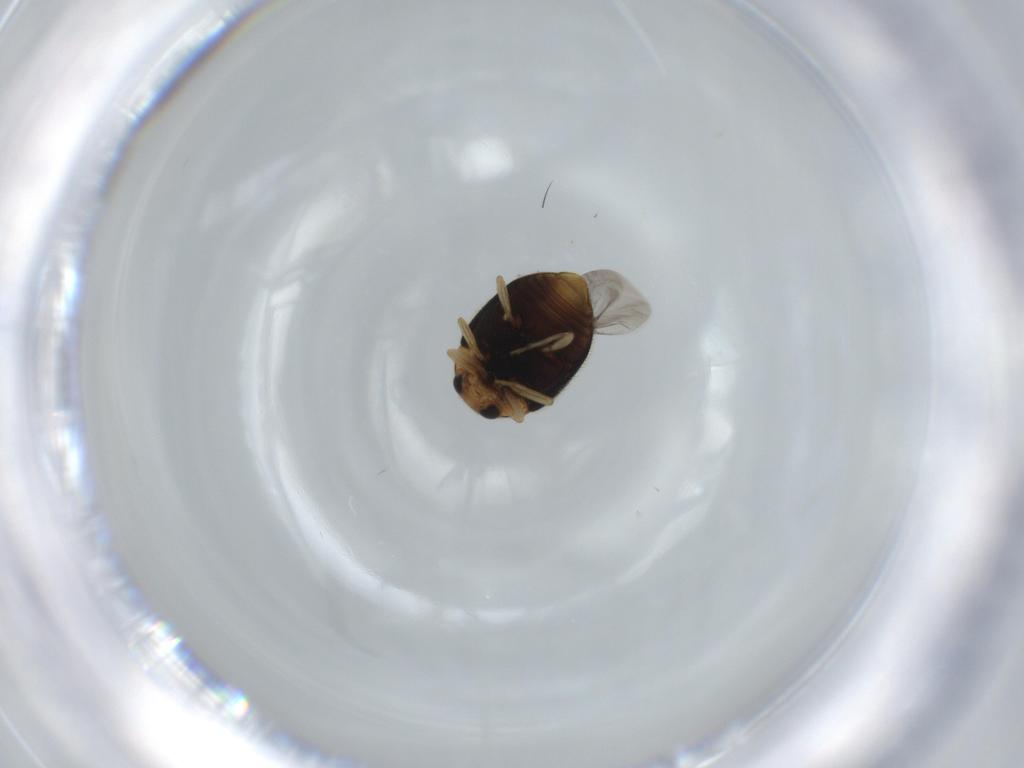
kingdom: Animalia
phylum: Arthropoda
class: Insecta
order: Coleoptera
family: Coccinellidae
